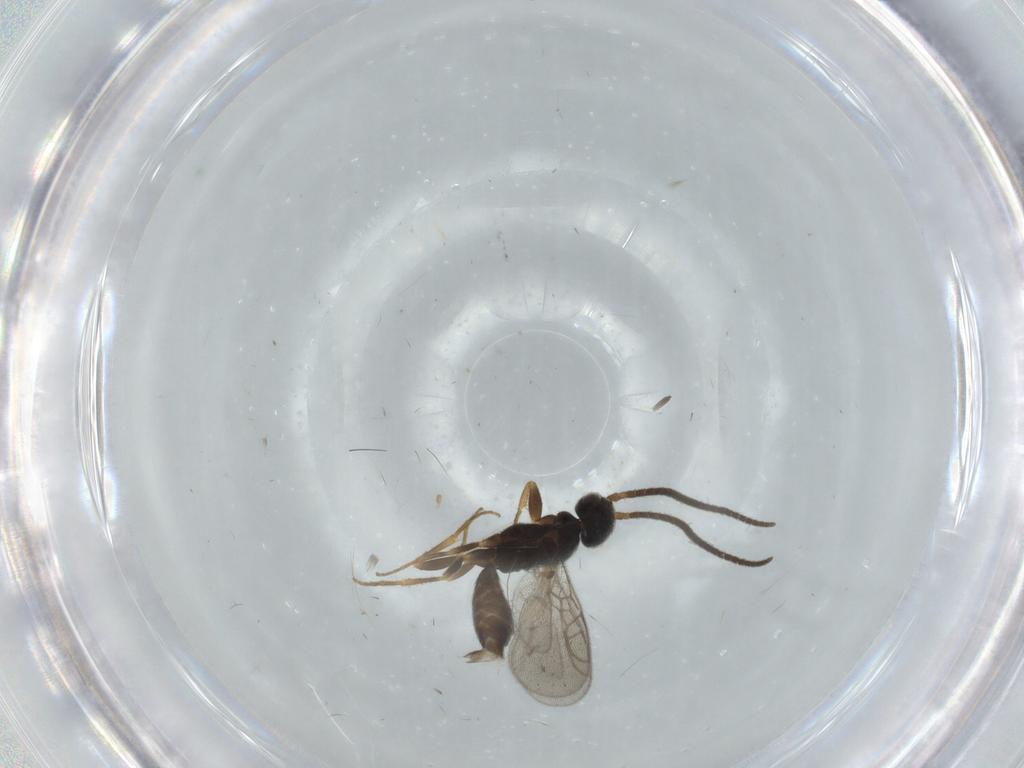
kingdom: Animalia
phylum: Arthropoda
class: Insecta
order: Hymenoptera
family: Sclerogibbidae
